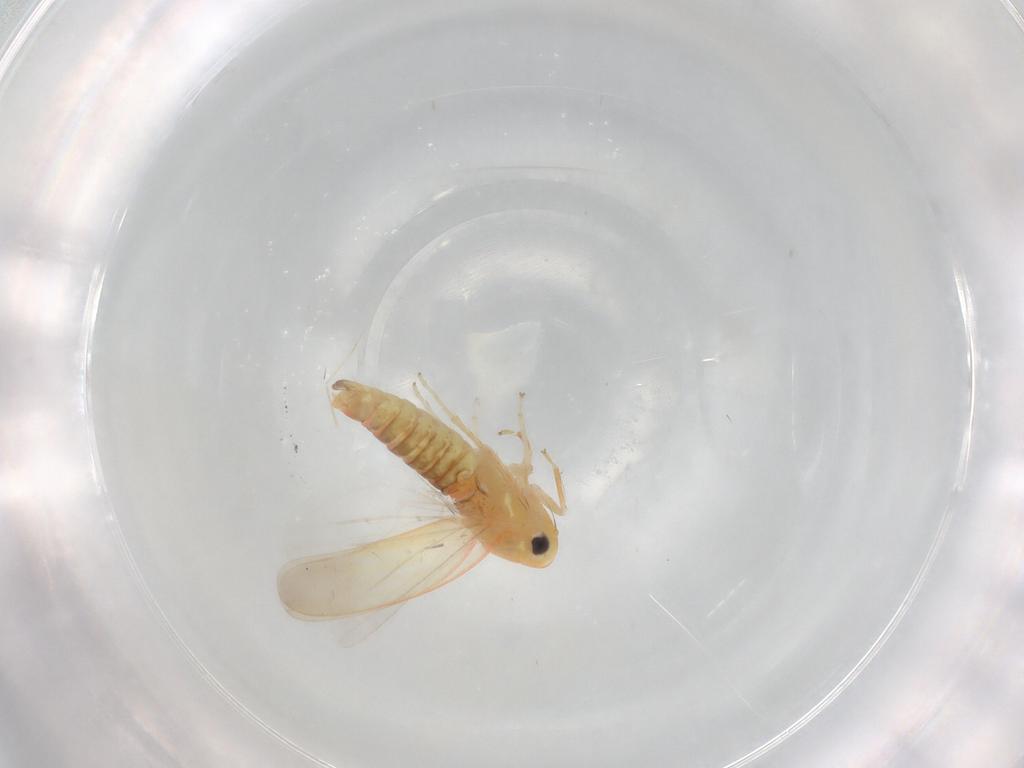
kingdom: Animalia
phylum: Arthropoda
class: Insecta
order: Hemiptera
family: Cicadellidae
